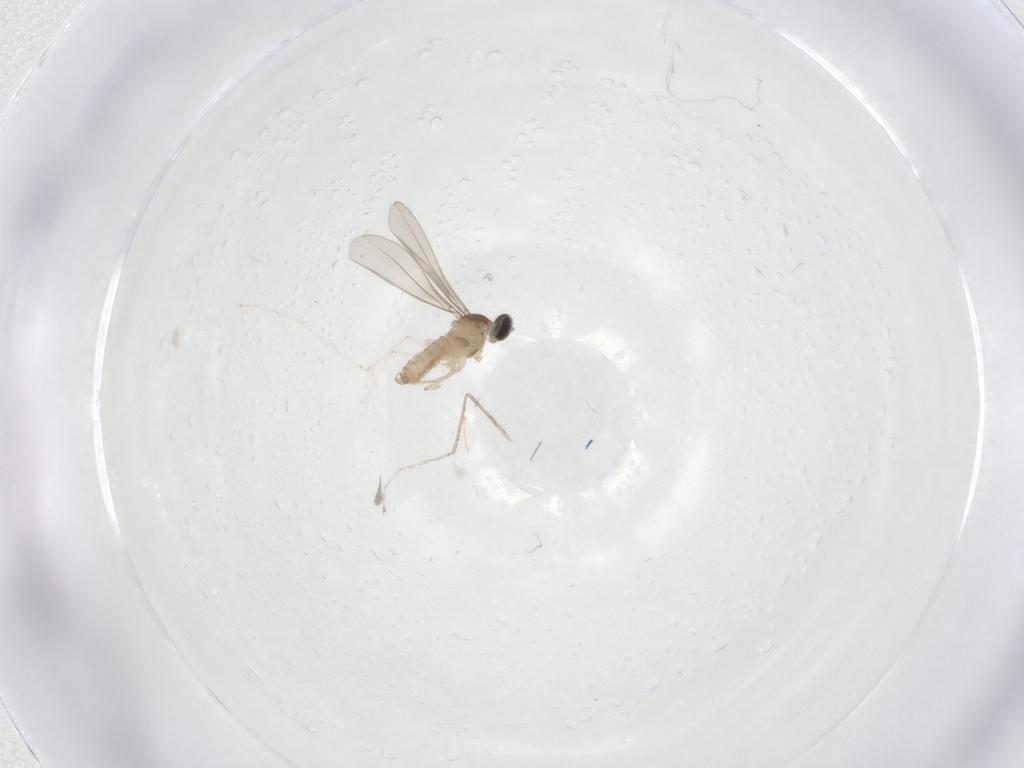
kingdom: Animalia
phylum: Arthropoda
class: Insecta
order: Diptera
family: Cecidomyiidae
